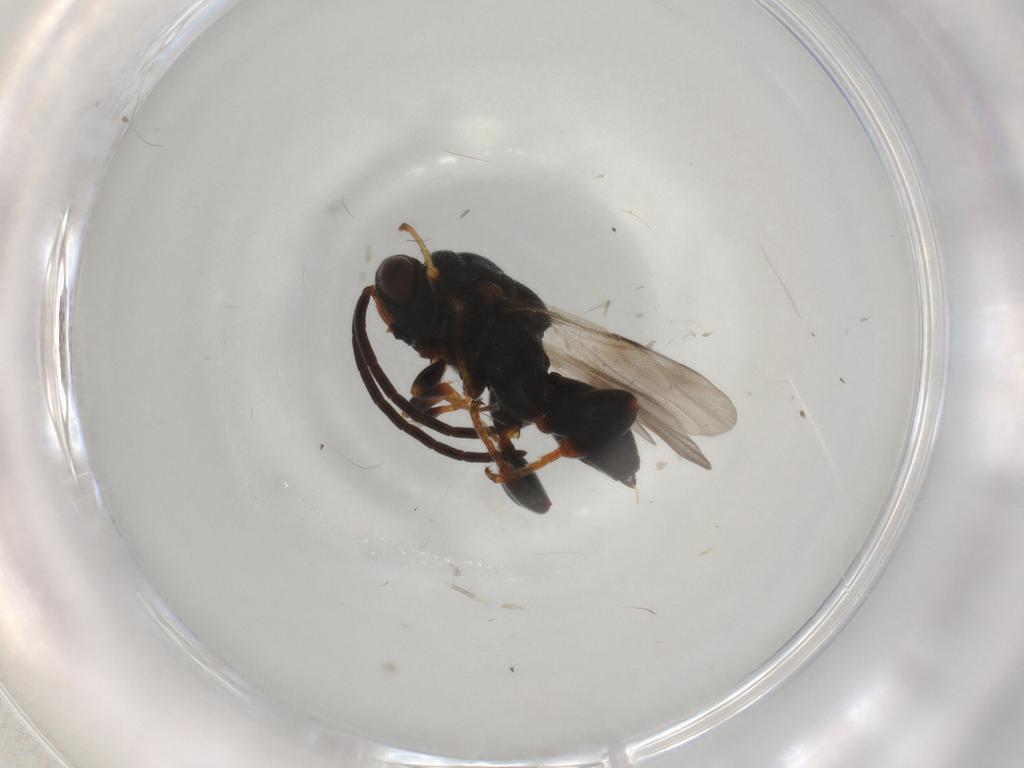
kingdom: Animalia
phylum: Arthropoda
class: Insecta
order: Hymenoptera
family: Chalcididae
